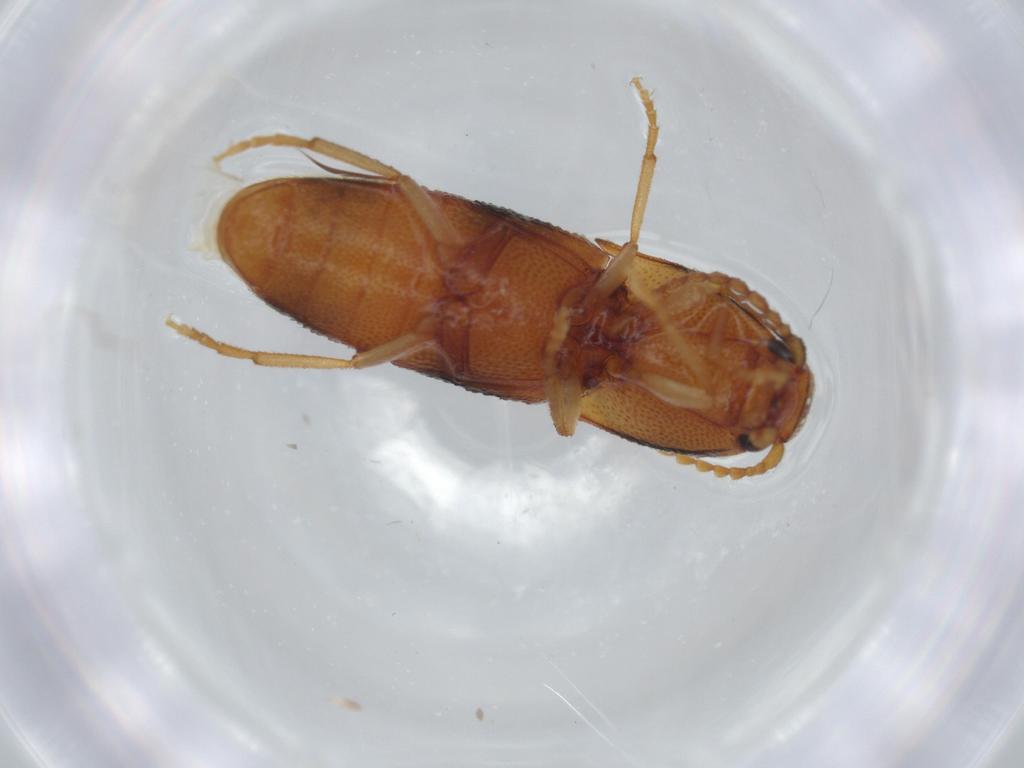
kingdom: Animalia
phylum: Arthropoda
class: Insecta
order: Coleoptera
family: Elateridae
